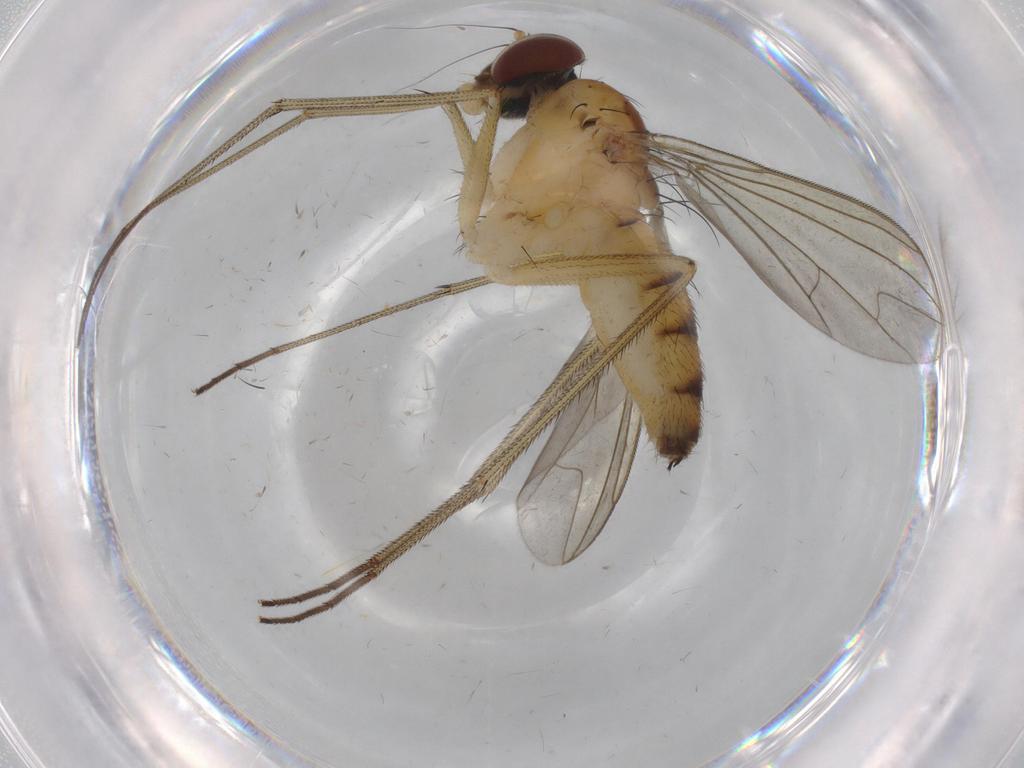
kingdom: Animalia
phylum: Arthropoda
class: Insecta
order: Diptera
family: Dolichopodidae
